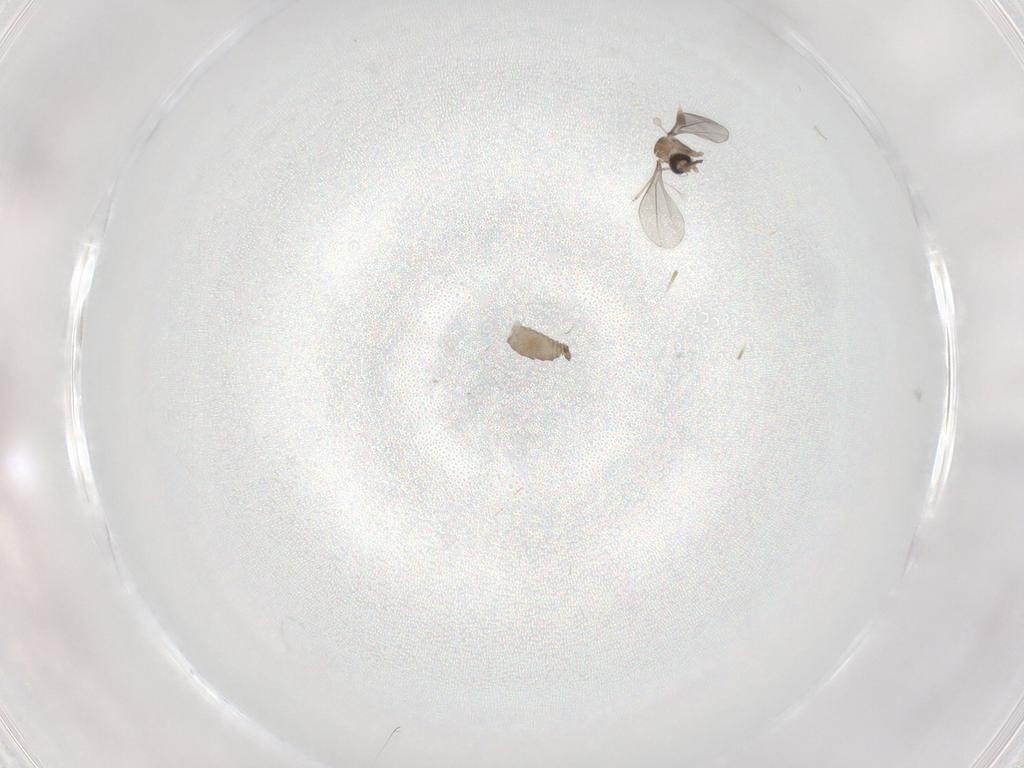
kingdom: Animalia
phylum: Arthropoda
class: Insecta
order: Diptera
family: Cecidomyiidae
